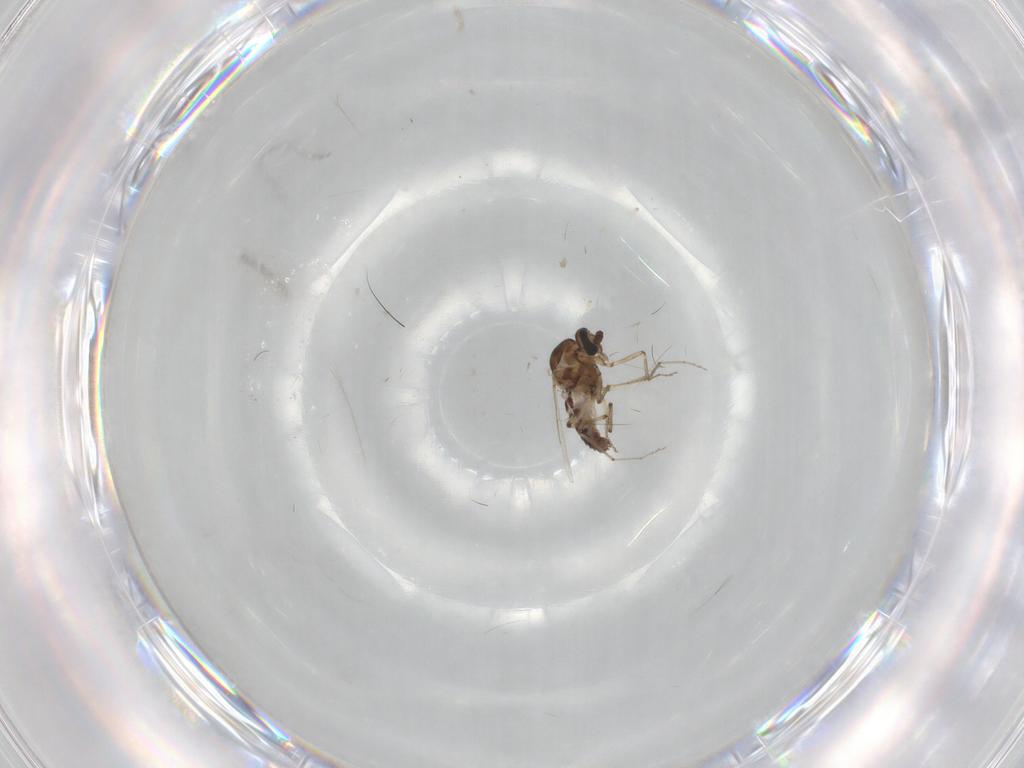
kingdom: Animalia
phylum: Arthropoda
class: Insecta
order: Diptera
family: Ceratopogonidae
